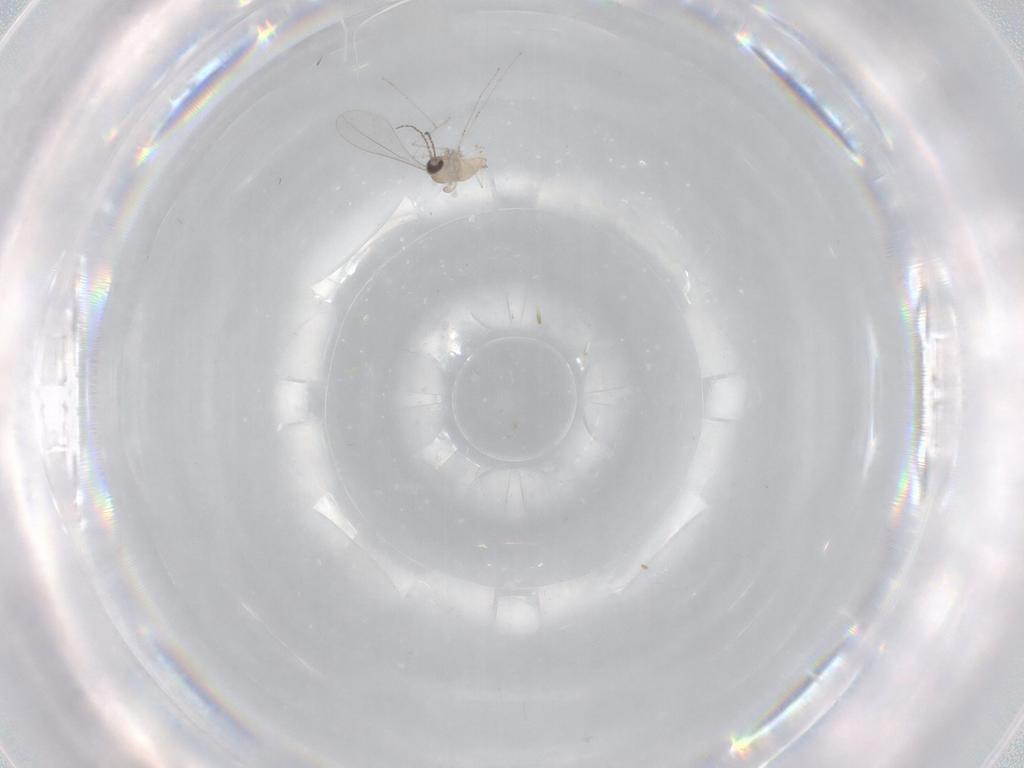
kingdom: Animalia
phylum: Arthropoda
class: Insecta
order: Diptera
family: Cecidomyiidae
